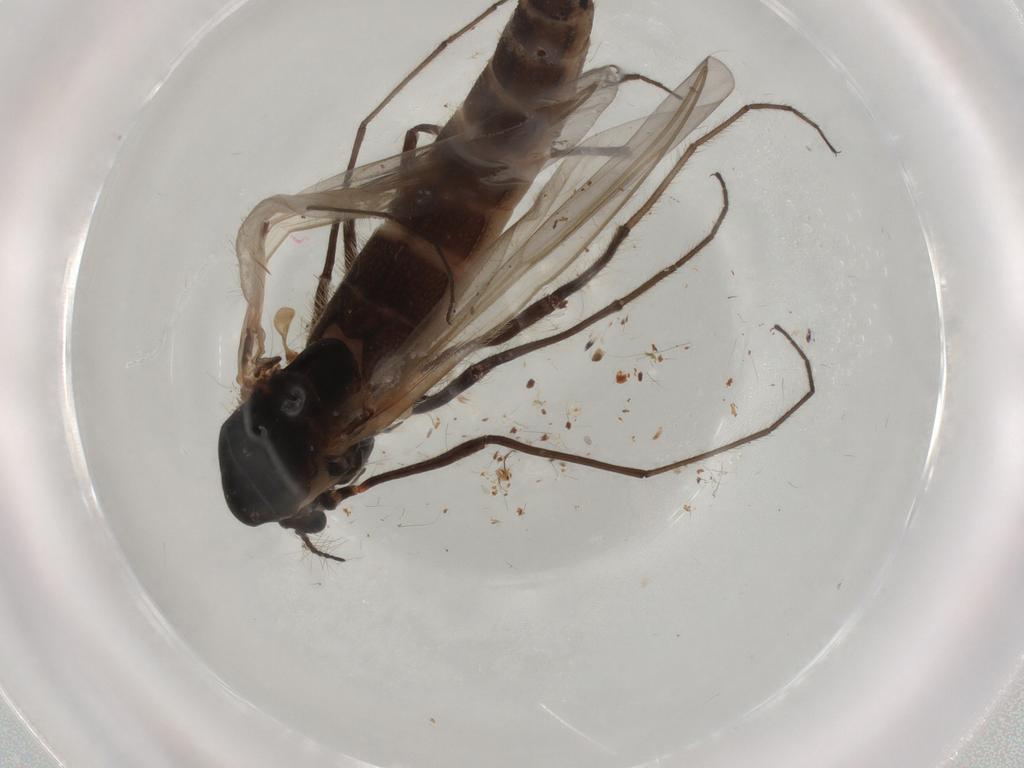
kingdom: Animalia
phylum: Arthropoda
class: Insecta
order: Diptera
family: Chironomidae
